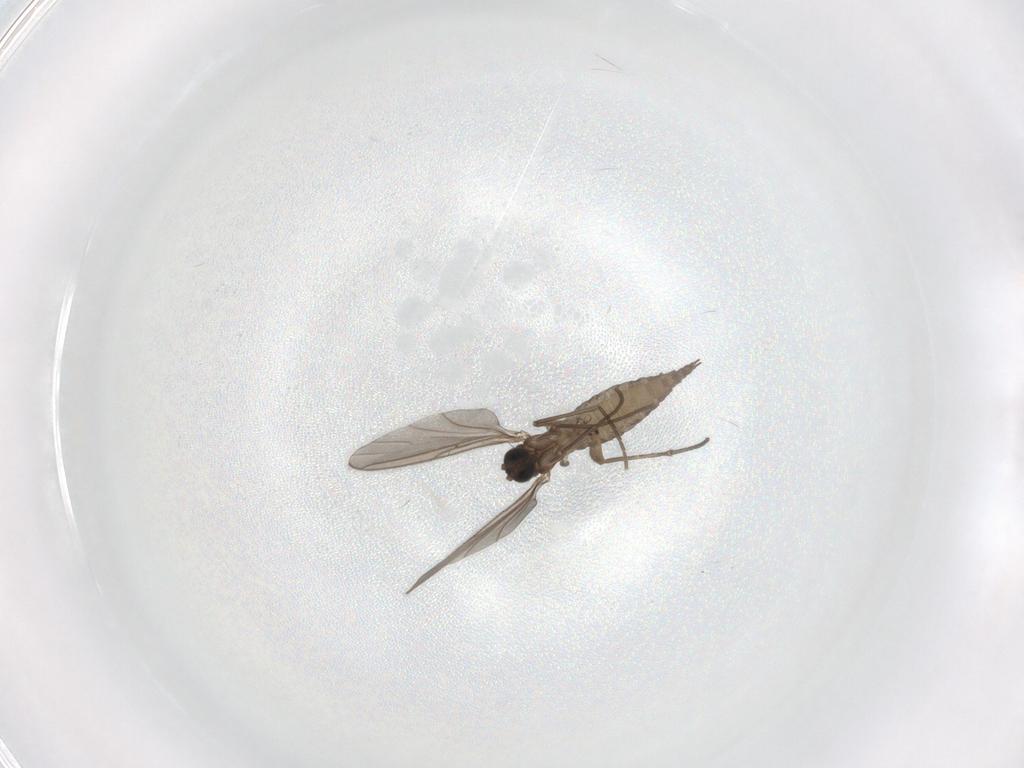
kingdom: Animalia
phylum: Arthropoda
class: Insecta
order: Diptera
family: Sciaridae
